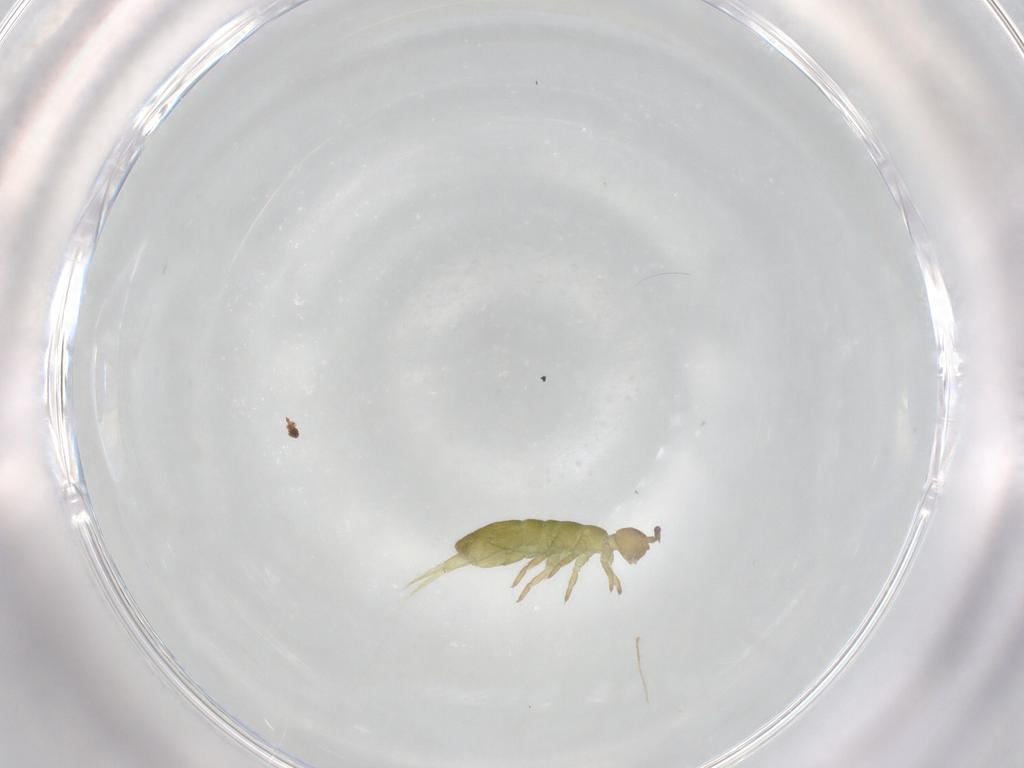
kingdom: Animalia
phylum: Arthropoda
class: Collembola
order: Entomobryomorpha
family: Isotomidae
